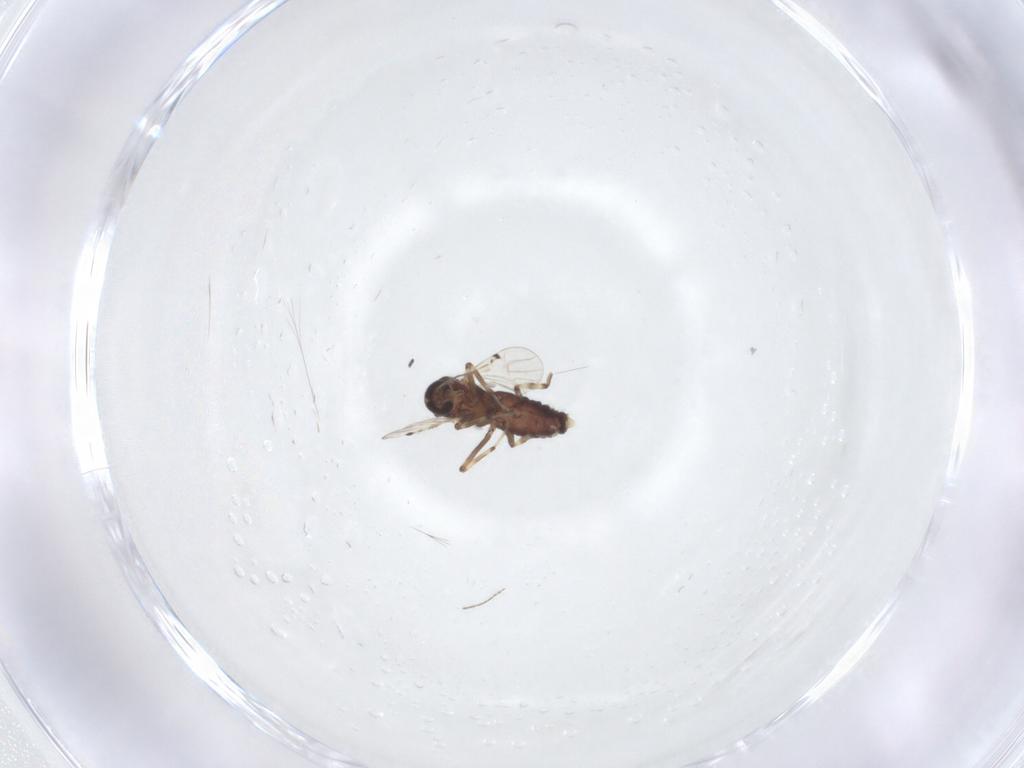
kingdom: Animalia
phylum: Arthropoda
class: Insecta
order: Diptera
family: Ceratopogonidae
